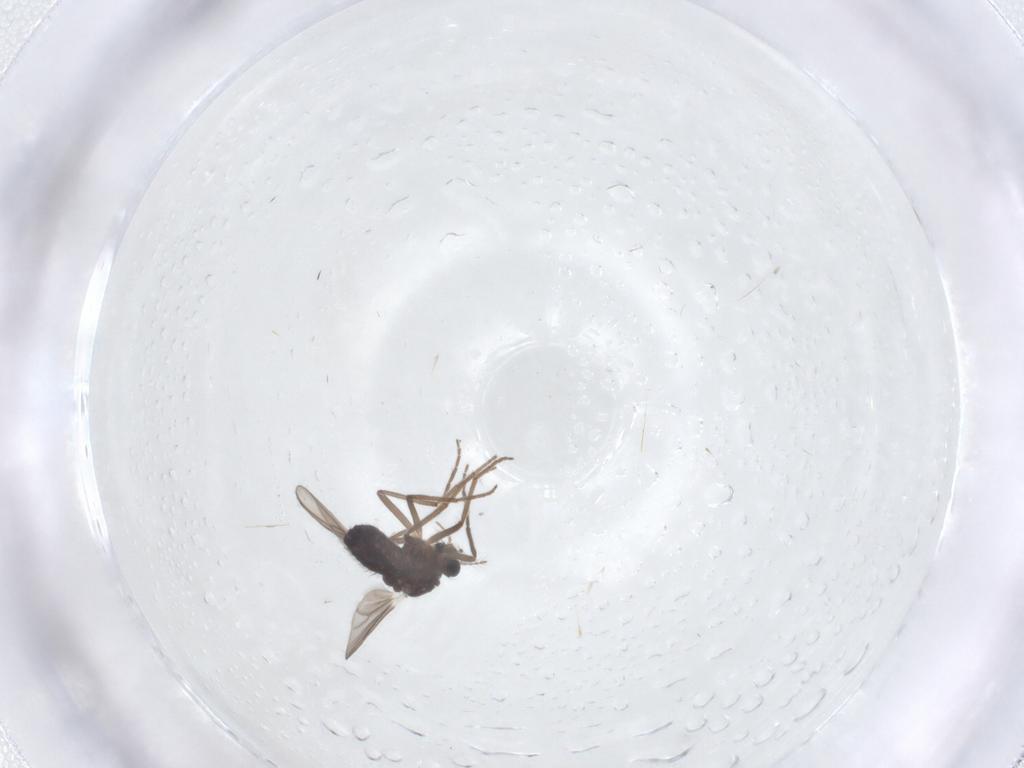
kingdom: Animalia
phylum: Arthropoda
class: Insecta
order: Diptera
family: Chironomidae
